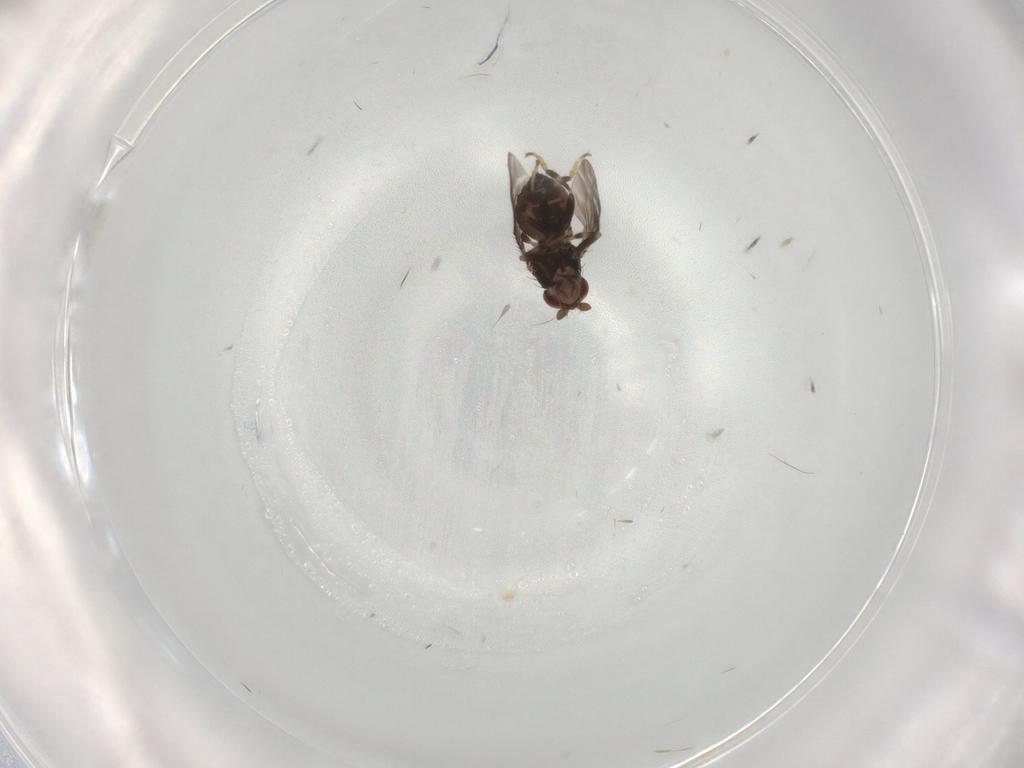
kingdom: Animalia
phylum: Arthropoda
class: Insecta
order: Diptera
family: Sphaeroceridae
